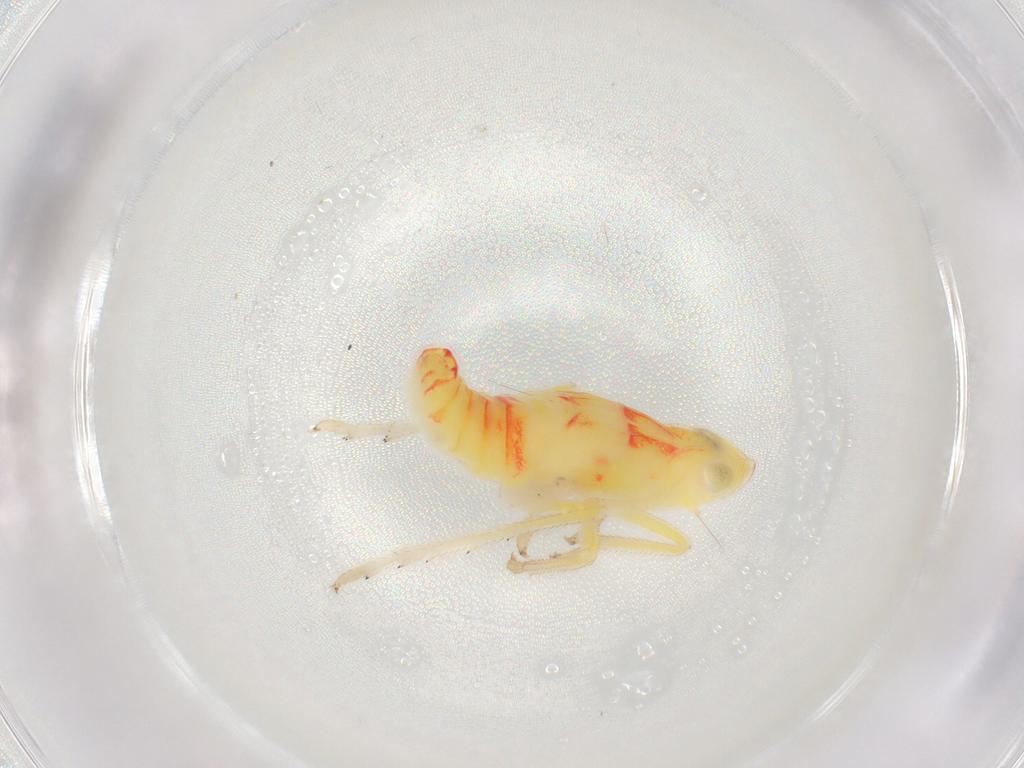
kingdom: Animalia
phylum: Arthropoda
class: Insecta
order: Hemiptera
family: Tropiduchidae
